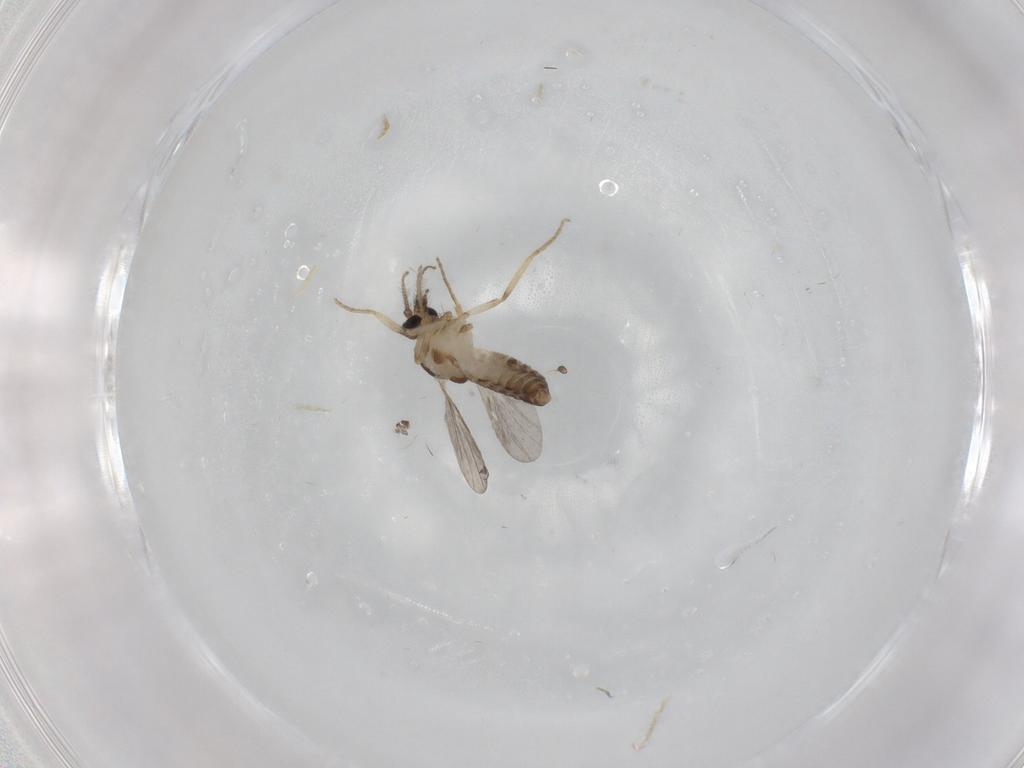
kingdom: Animalia
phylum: Arthropoda
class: Insecta
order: Diptera
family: Ceratopogonidae
